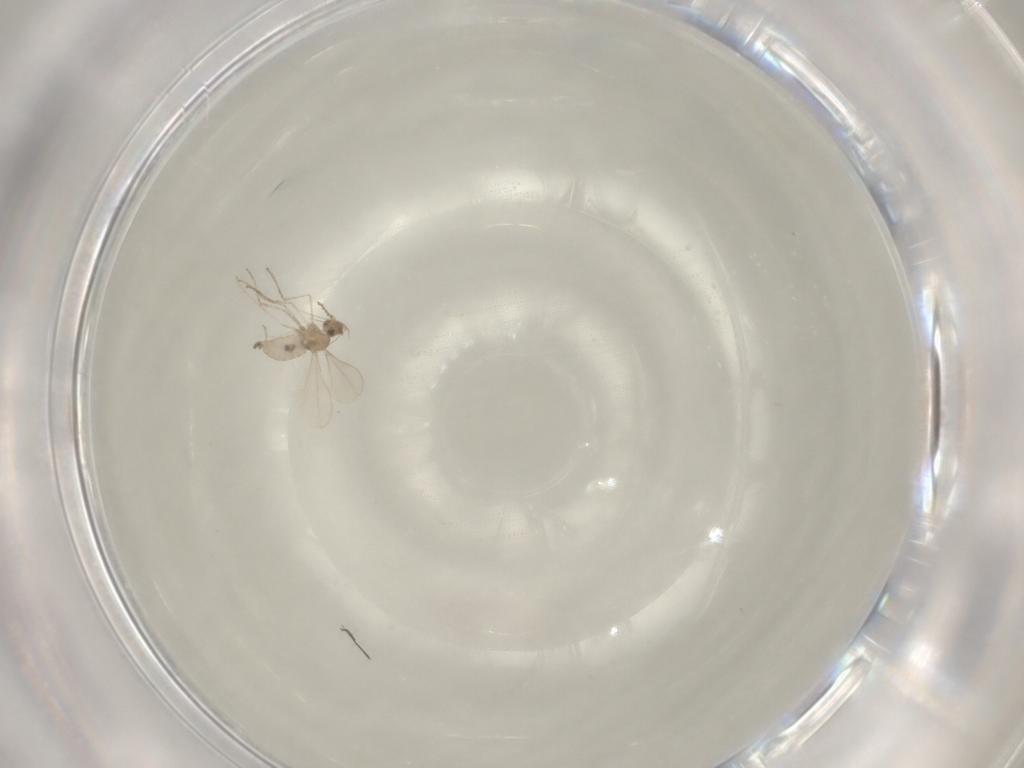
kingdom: Animalia
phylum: Arthropoda
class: Insecta
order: Diptera
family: Cecidomyiidae
